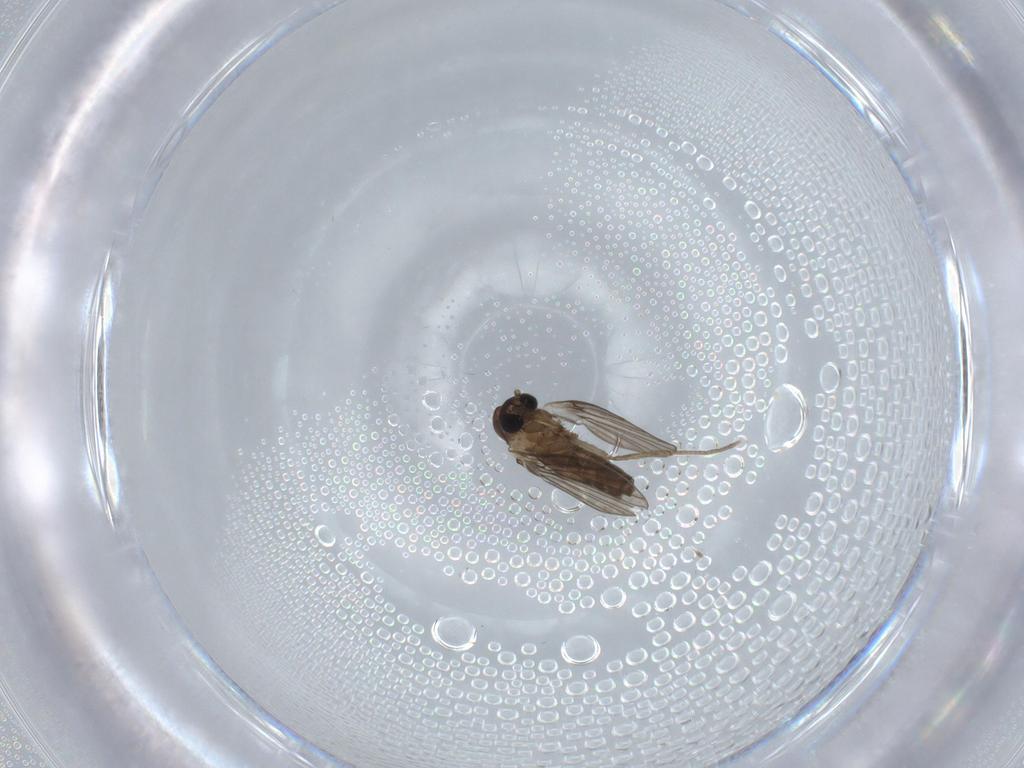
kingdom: Animalia
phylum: Arthropoda
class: Insecta
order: Diptera
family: Psychodidae
